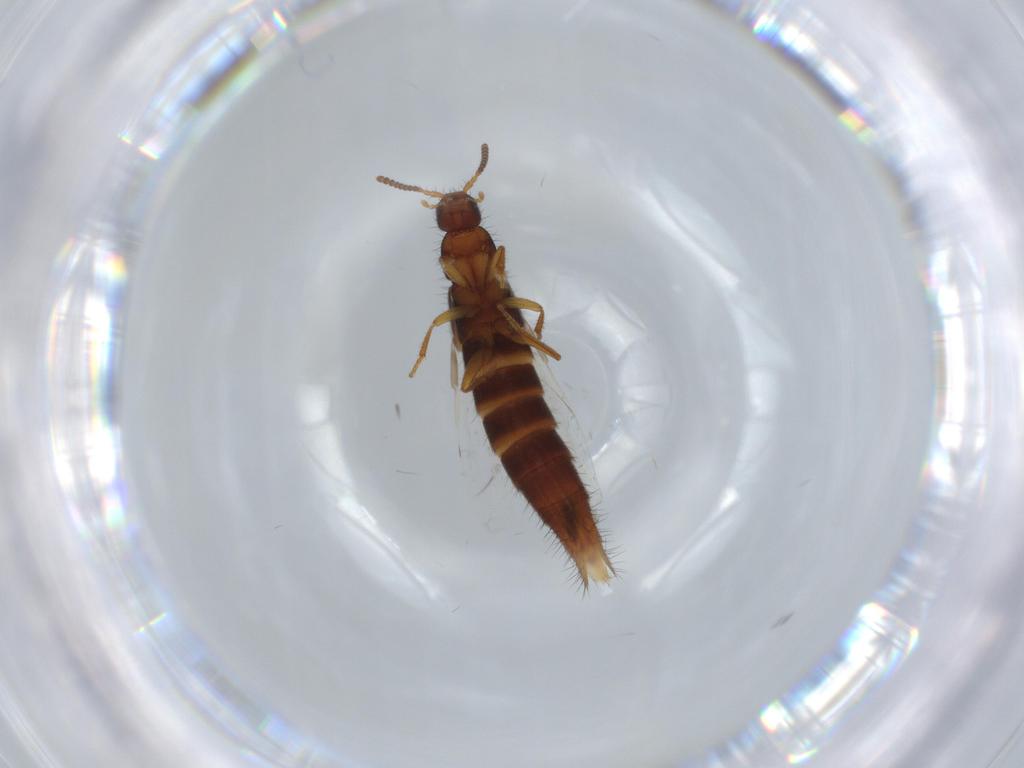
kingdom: Animalia
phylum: Arthropoda
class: Insecta
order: Coleoptera
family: Staphylinidae
